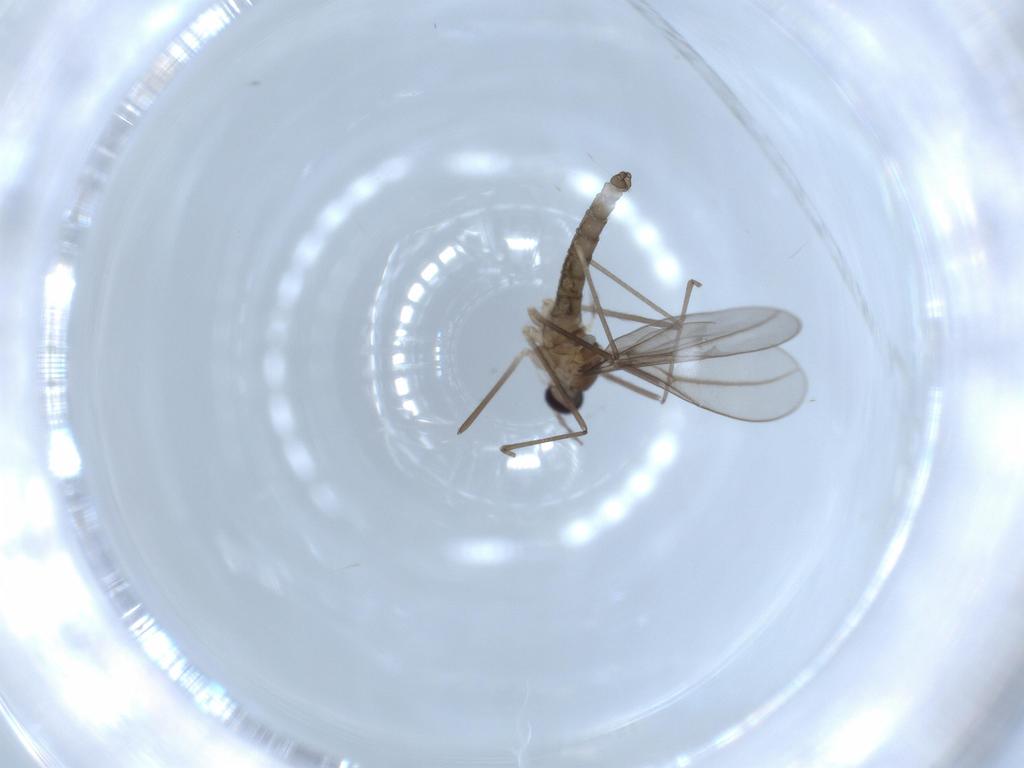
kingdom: Animalia
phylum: Arthropoda
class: Insecta
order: Diptera
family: Cecidomyiidae
